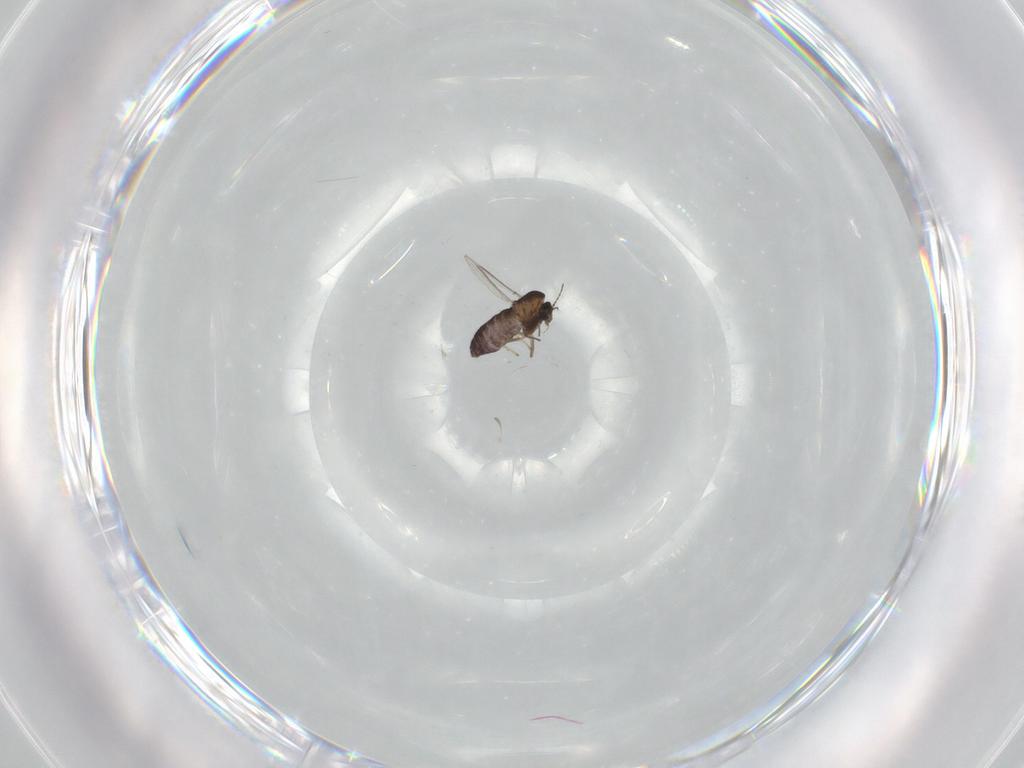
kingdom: Animalia
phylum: Arthropoda
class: Insecta
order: Diptera
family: Chironomidae
